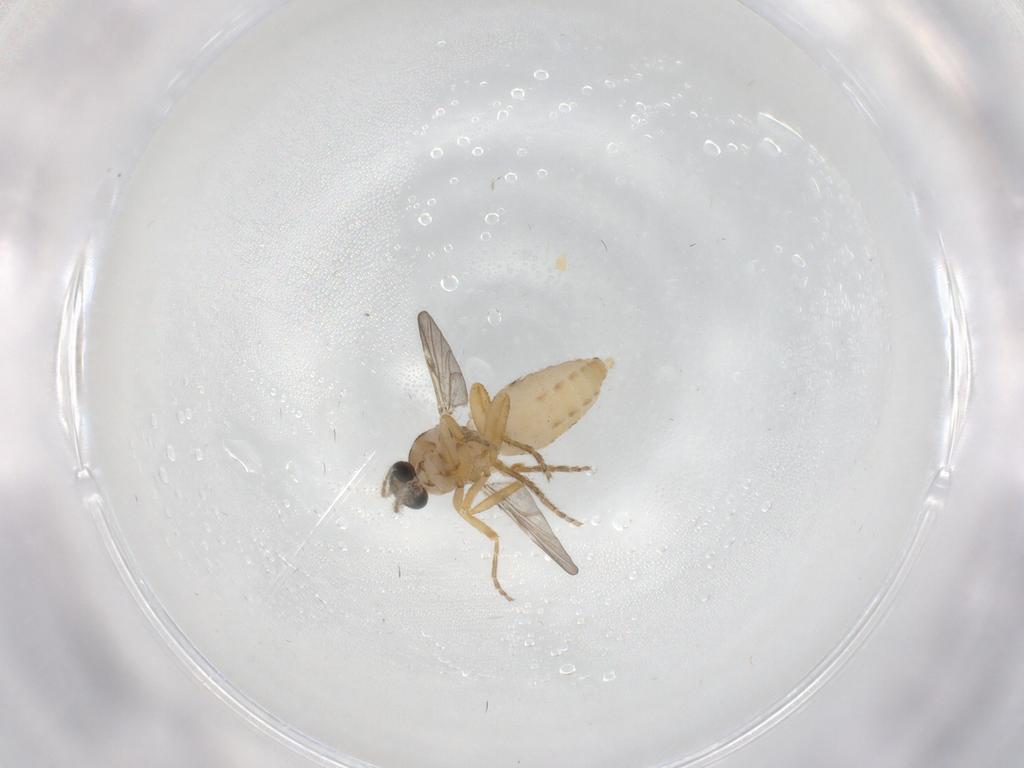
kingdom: Animalia
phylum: Arthropoda
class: Insecta
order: Diptera
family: Ceratopogonidae
